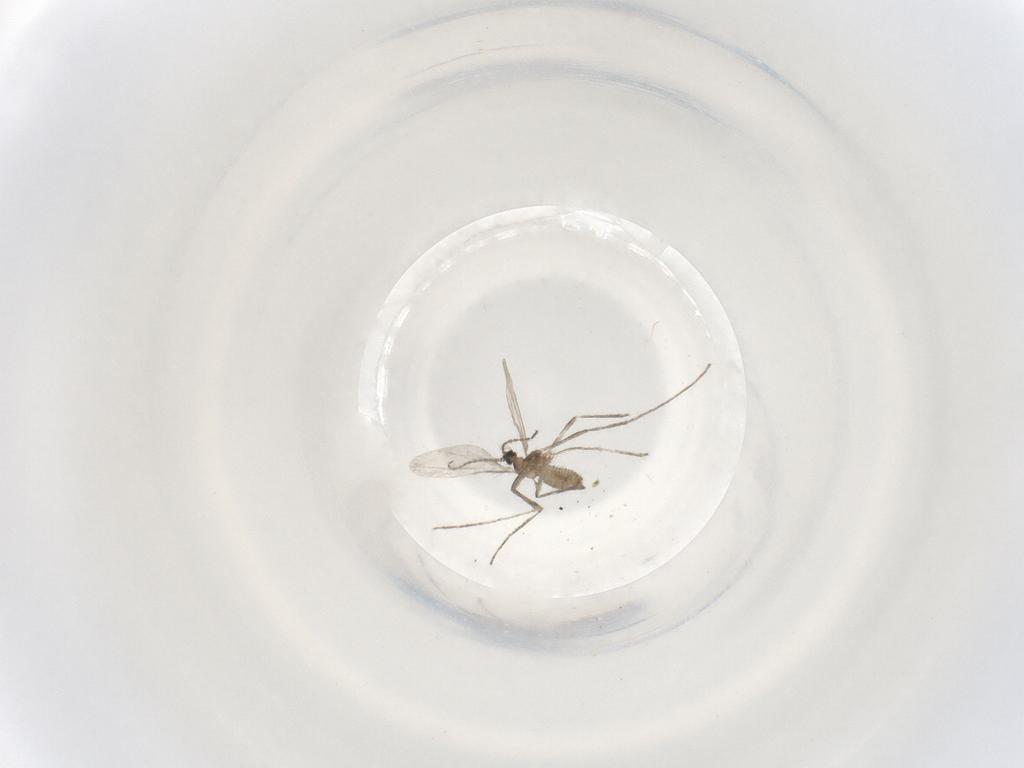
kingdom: Animalia
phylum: Arthropoda
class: Insecta
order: Diptera
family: Cecidomyiidae
